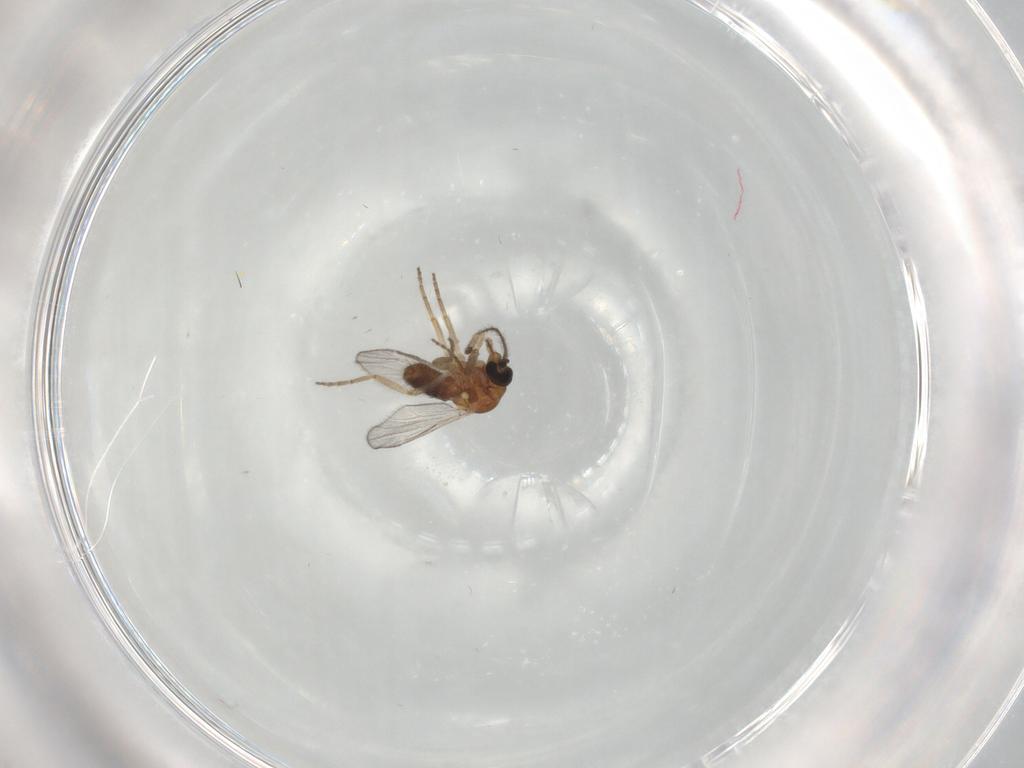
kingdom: Animalia
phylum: Arthropoda
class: Insecta
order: Diptera
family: Ceratopogonidae
